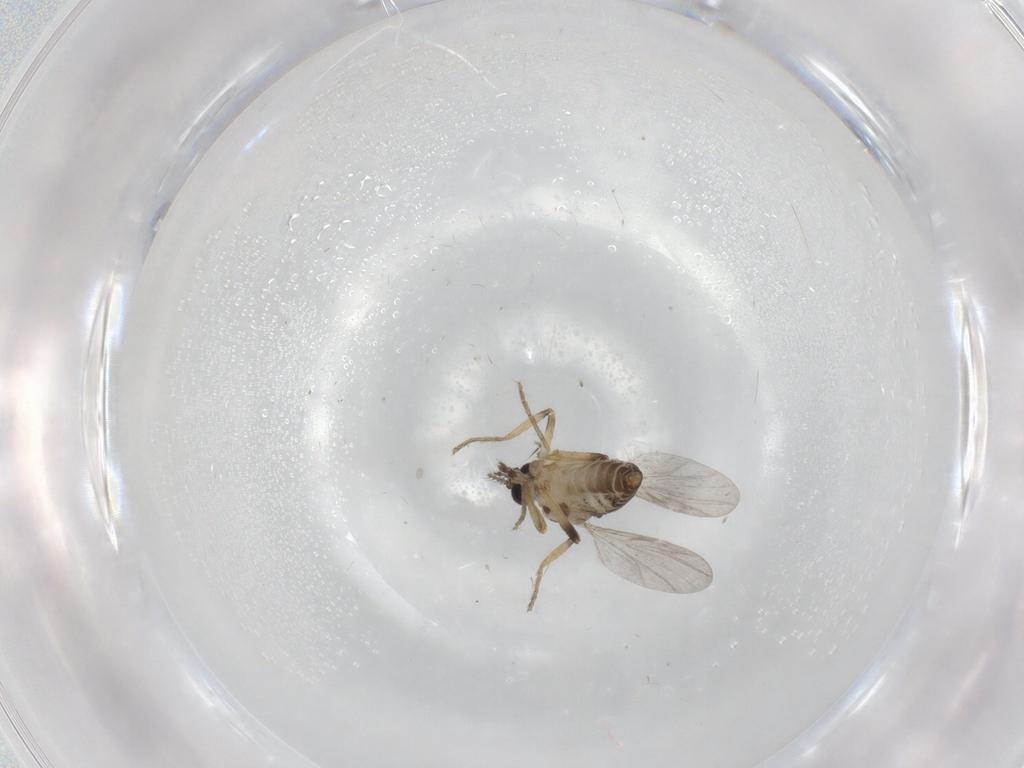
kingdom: Animalia
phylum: Arthropoda
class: Insecta
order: Diptera
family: Ceratopogonidae
